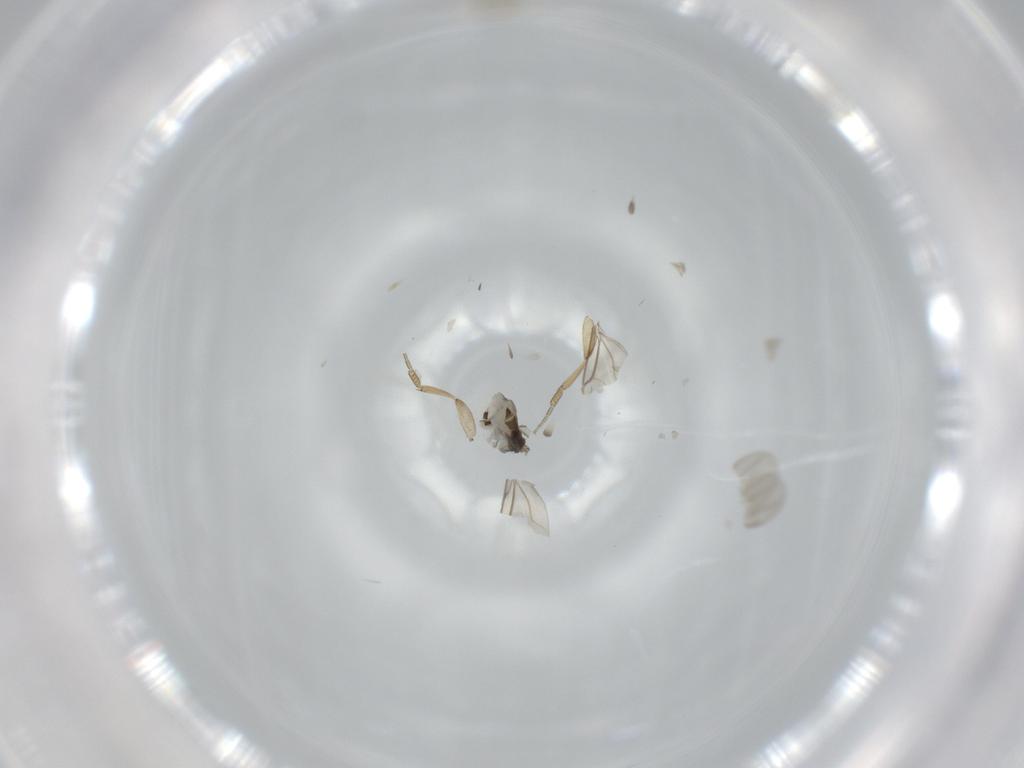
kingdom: Animalia
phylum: Arthropoda
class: Insecta
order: Diptera
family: Phoridae
